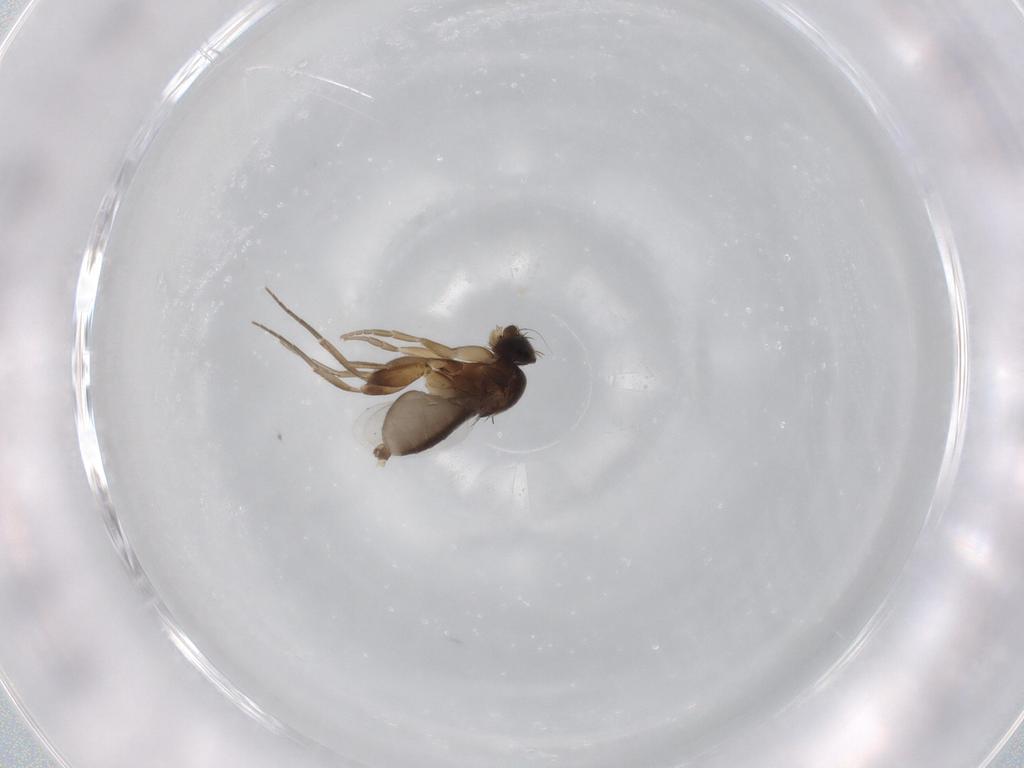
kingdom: Animalia
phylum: Arthropoda
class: Insecta
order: Diptera
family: Phoridae
